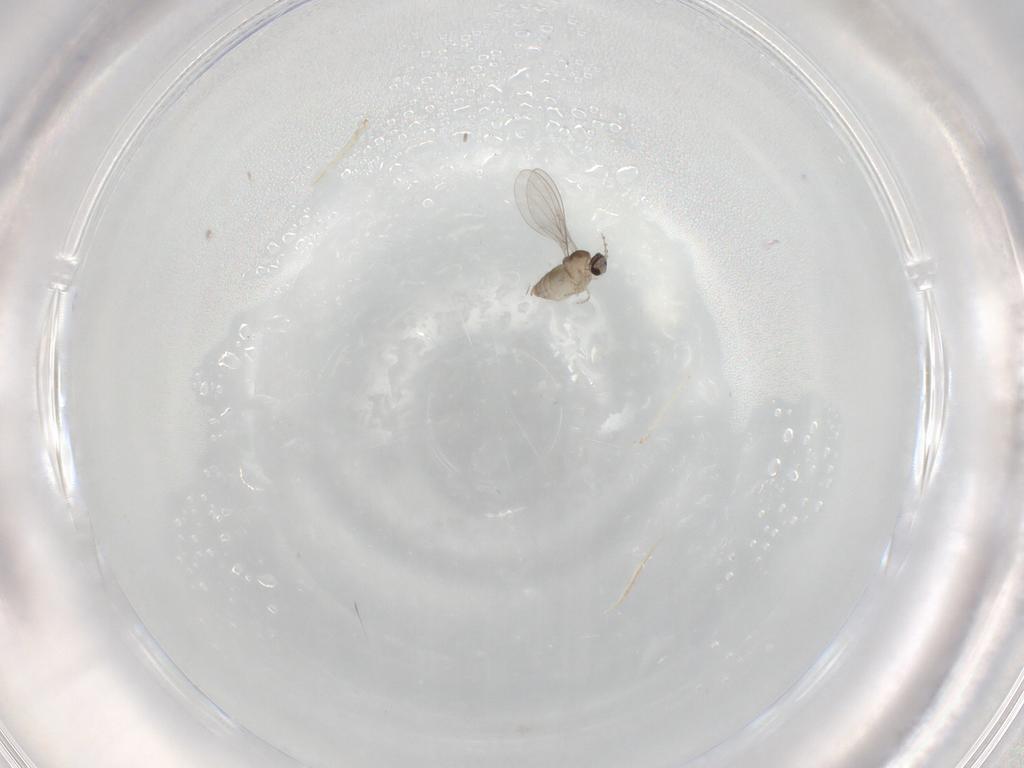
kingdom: Animalia
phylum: Arthropoda
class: Insecta
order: Diptera
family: Cecidomyiidae
